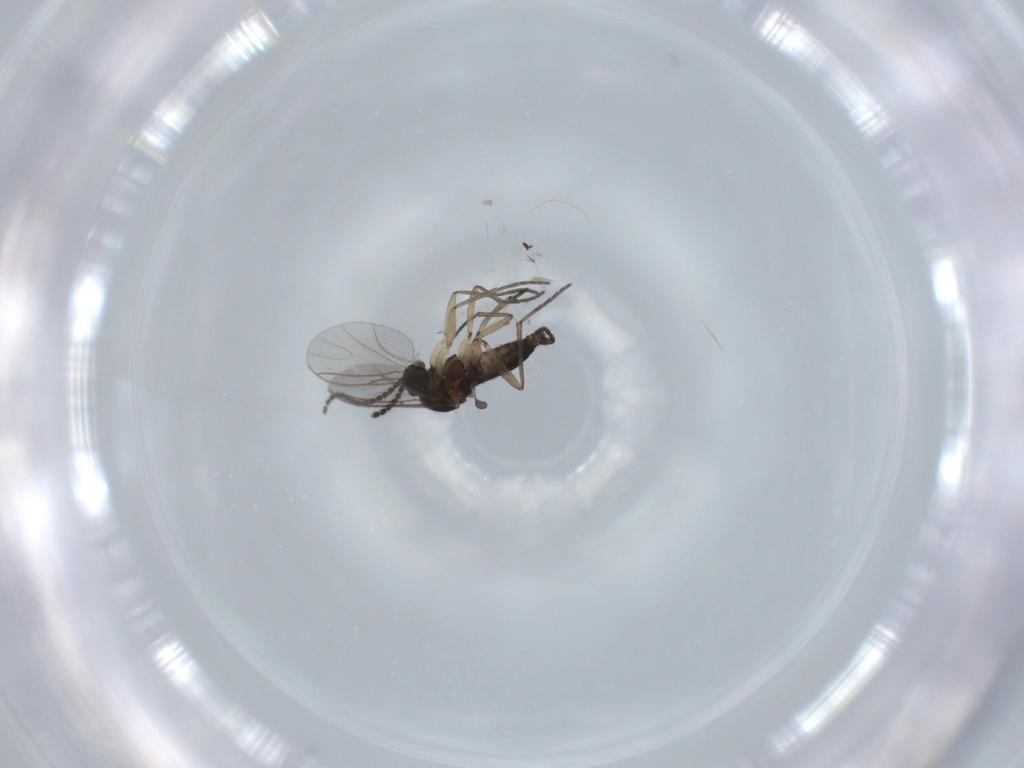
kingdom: Animalia
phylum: Arthropoda
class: Insecta
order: Diptera
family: Sciaridae
